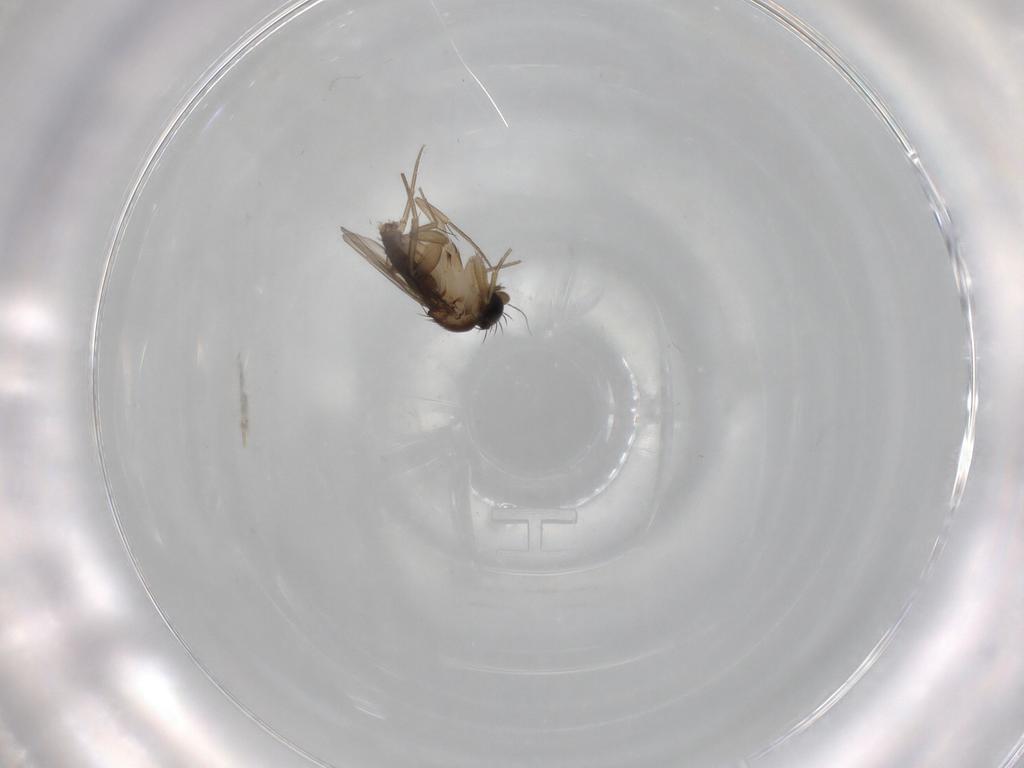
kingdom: Animalia
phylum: Arthropoda
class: Insecta
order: Diptera
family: Phoridae
